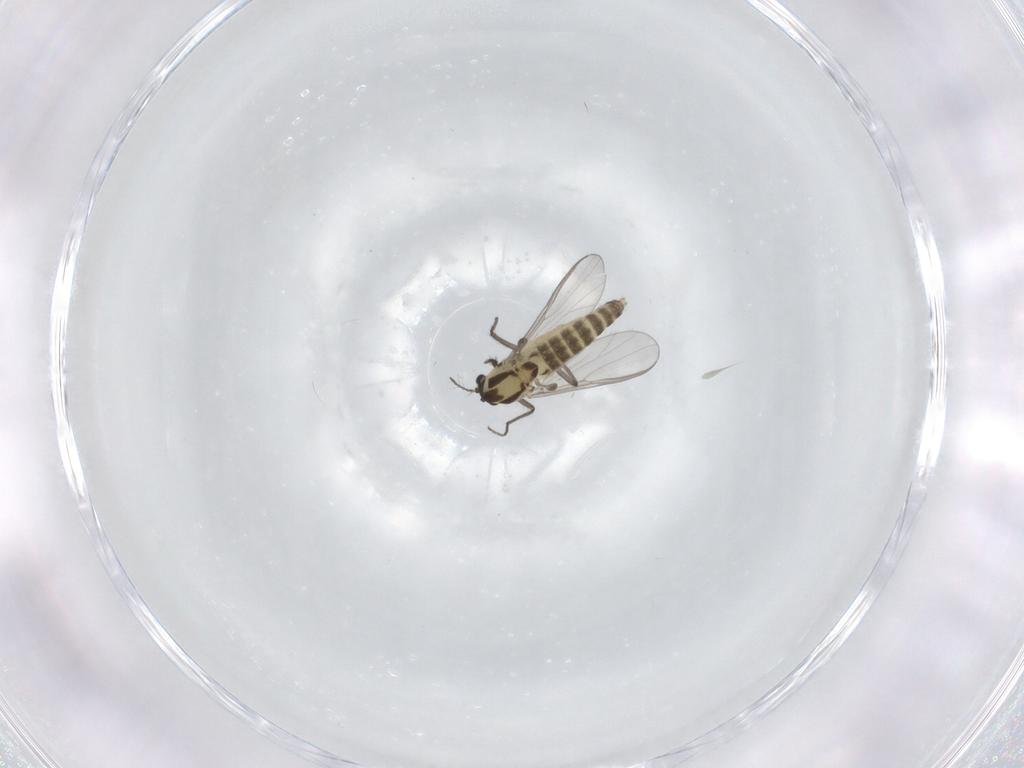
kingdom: Animalia
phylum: Arthropoda
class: Insecta
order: Diptera
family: Chironomidae
